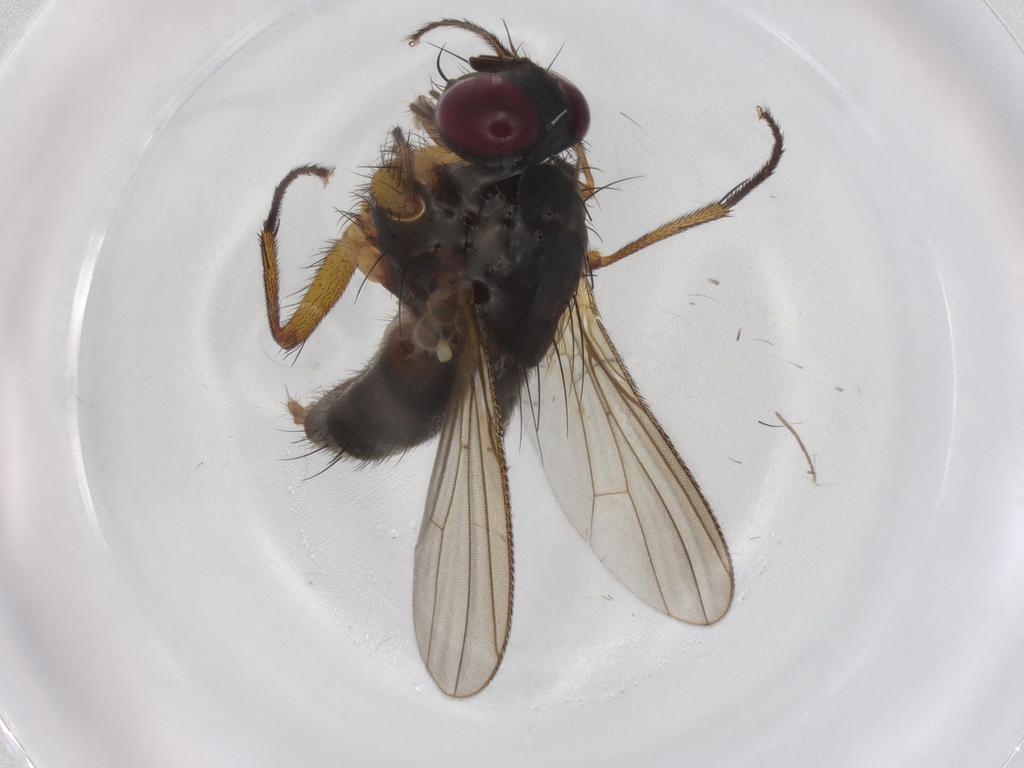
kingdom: Animalia
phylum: Arthropoda
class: Insecta
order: Diptera
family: Muscidae
